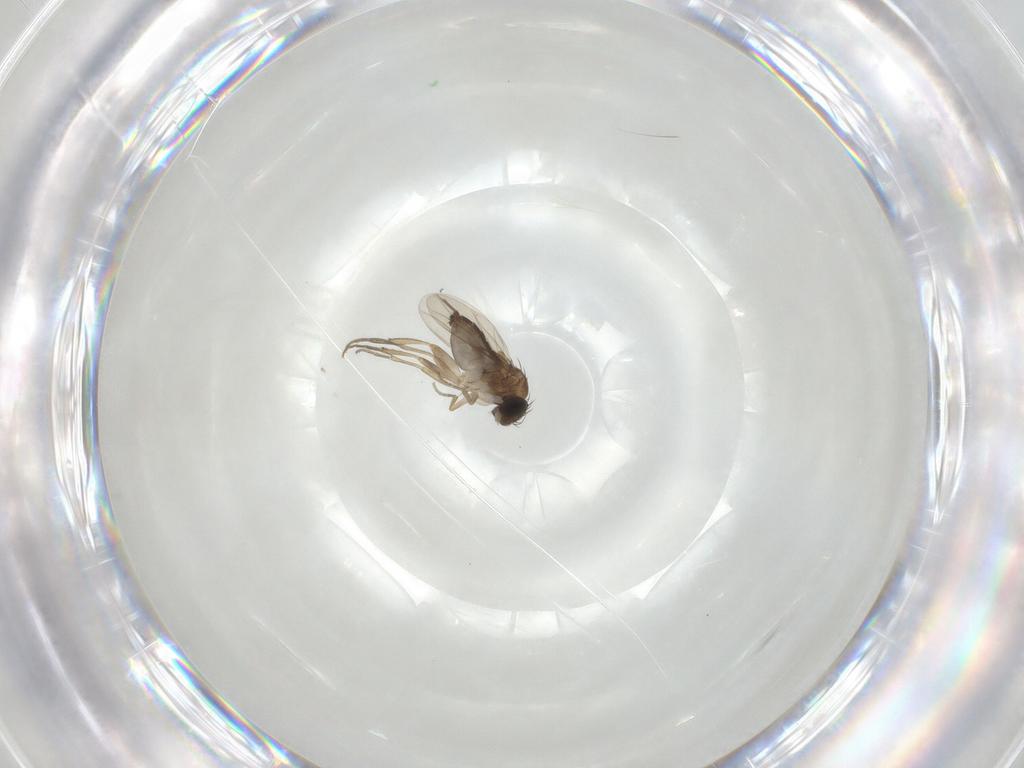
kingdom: Animalia
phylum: Arthropoda
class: Insecta
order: Diptera
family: Phoridae
